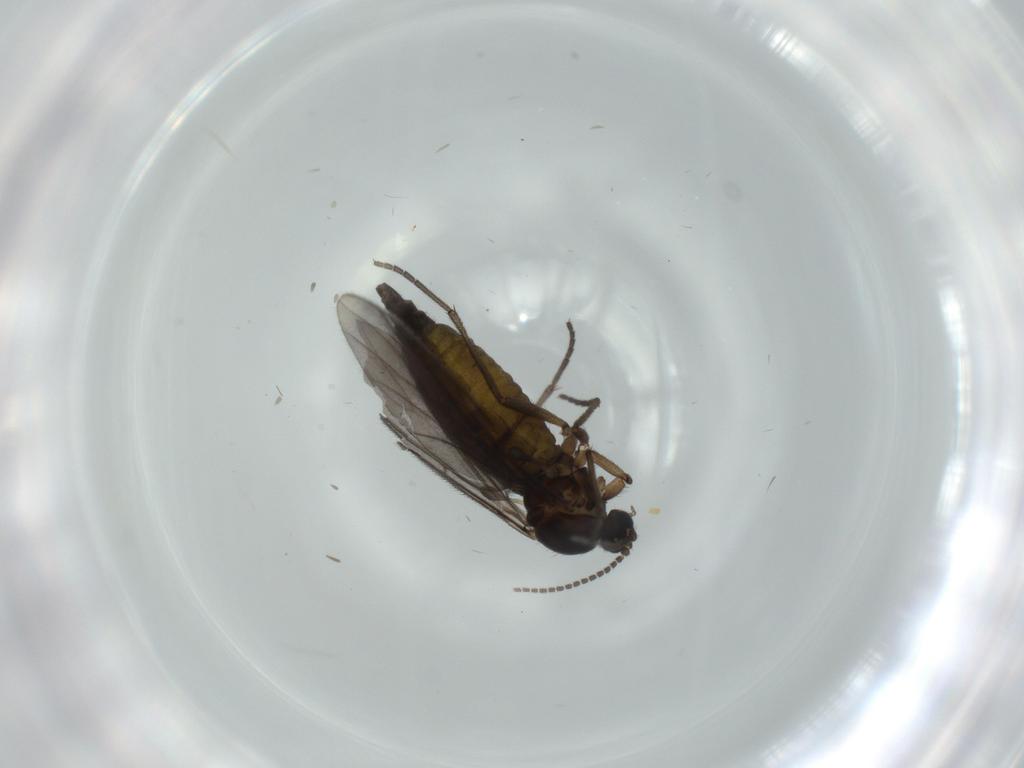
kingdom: Animalia
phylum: Arthropoda
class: Insecta
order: Diptera
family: Sciaridae
